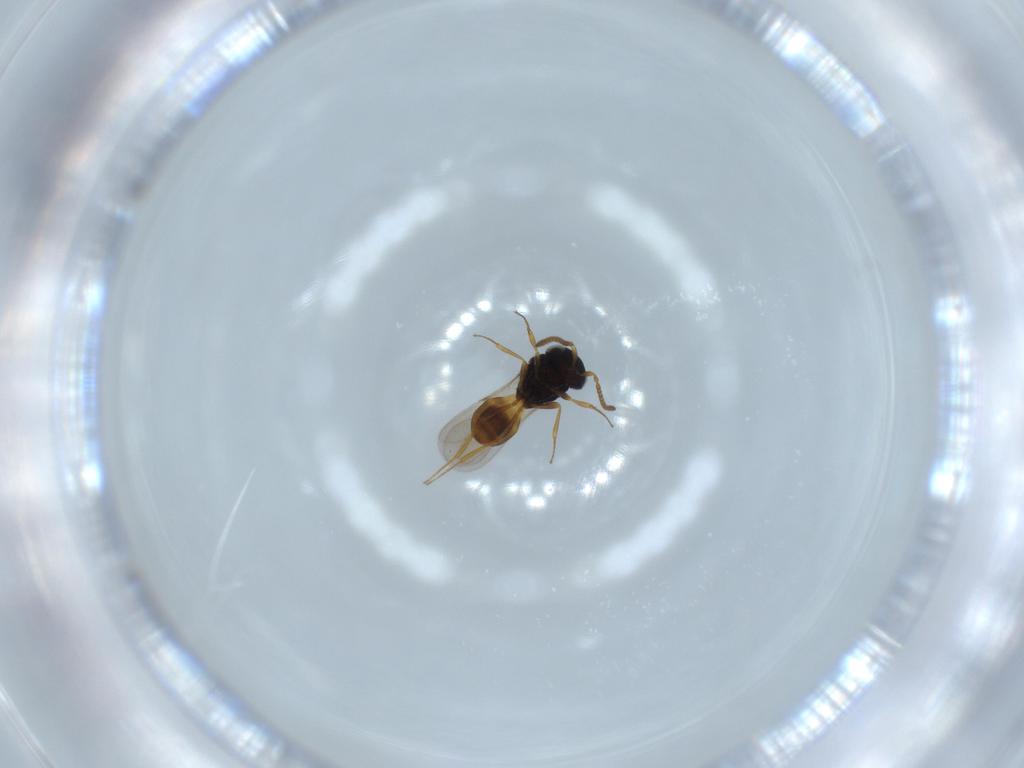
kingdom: Animalia
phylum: Arthropoda
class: Insecta
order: Hymenoptera
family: Scelionidae
